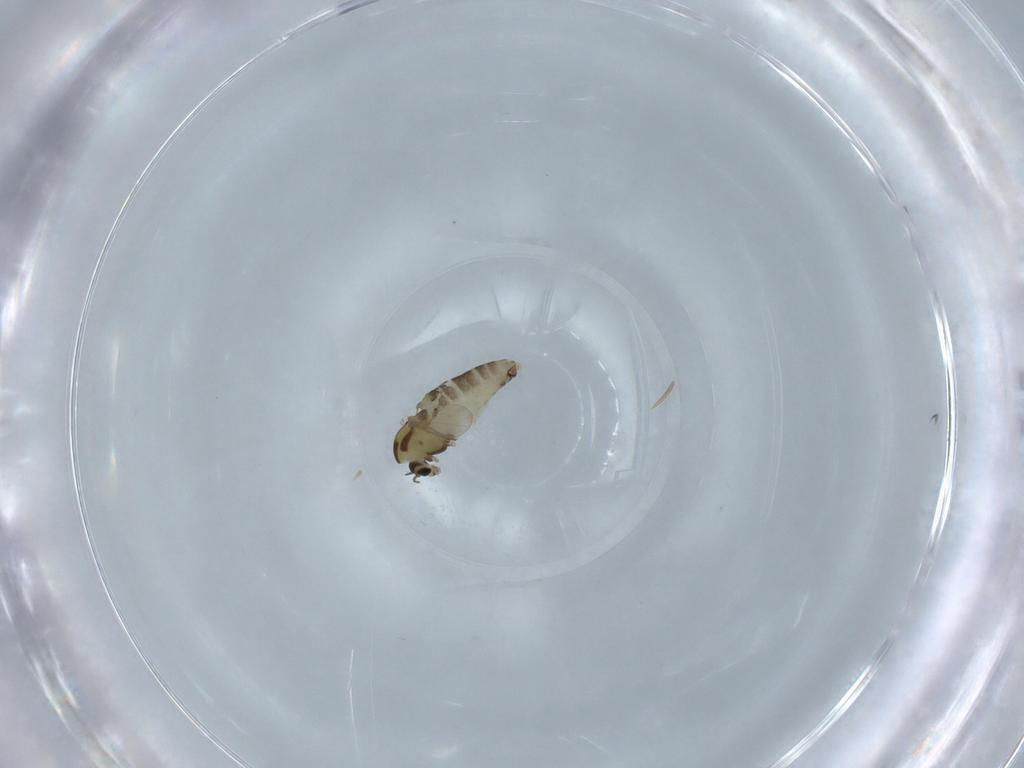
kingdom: Animalia
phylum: Arthropoda
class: Insecta
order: Diptera
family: Chironomidae
